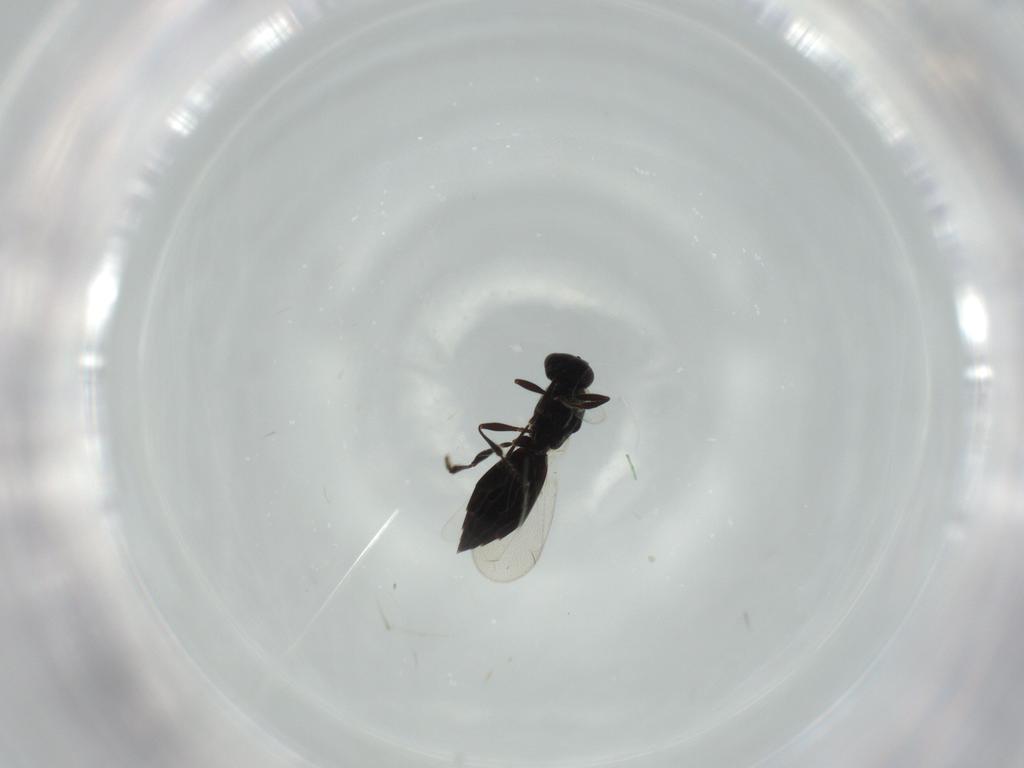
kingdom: Animalia
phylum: Arthropoda
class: Insecta
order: Hymenoptera
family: Platygastridae
